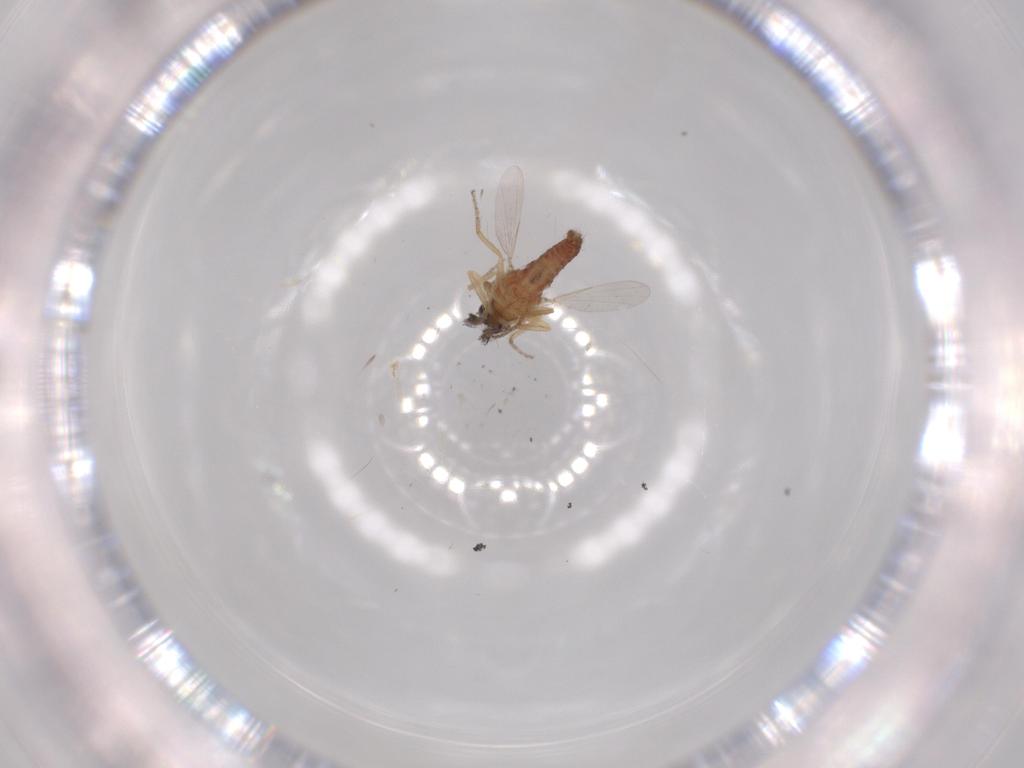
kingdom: Animalia
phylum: Arthropoda
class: Insecta
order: Diptera
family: Ceratopogonidae
